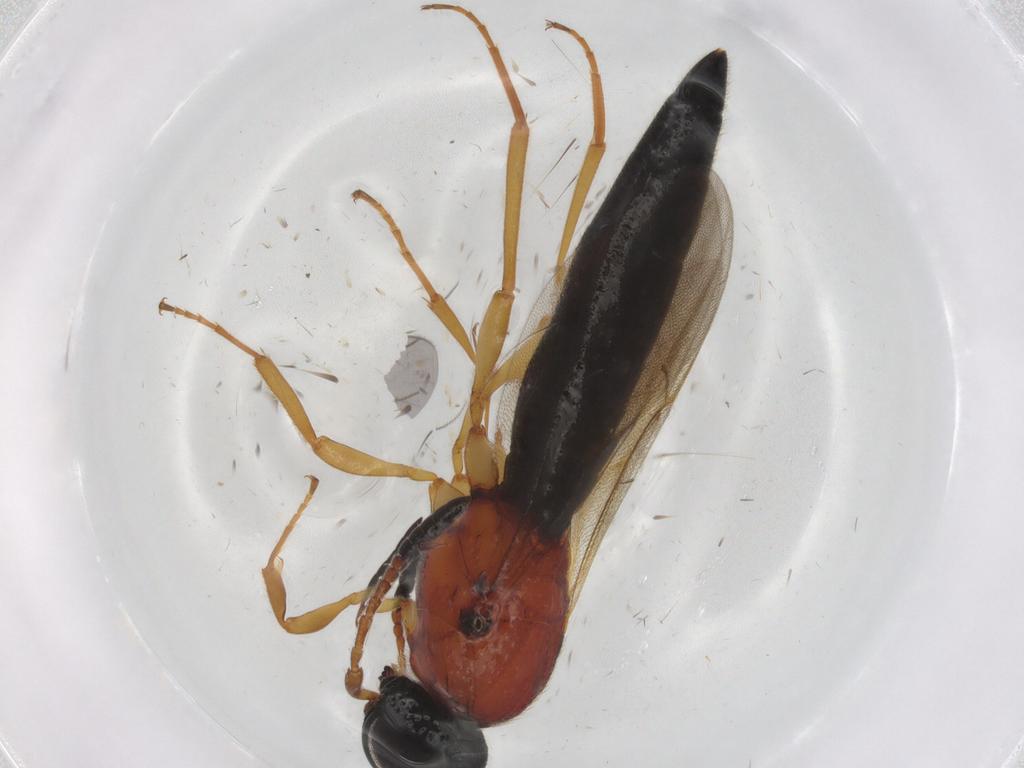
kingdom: Animalia
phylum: Arthropoda
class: Insecta
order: Hymenoptera
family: Scelionidae
